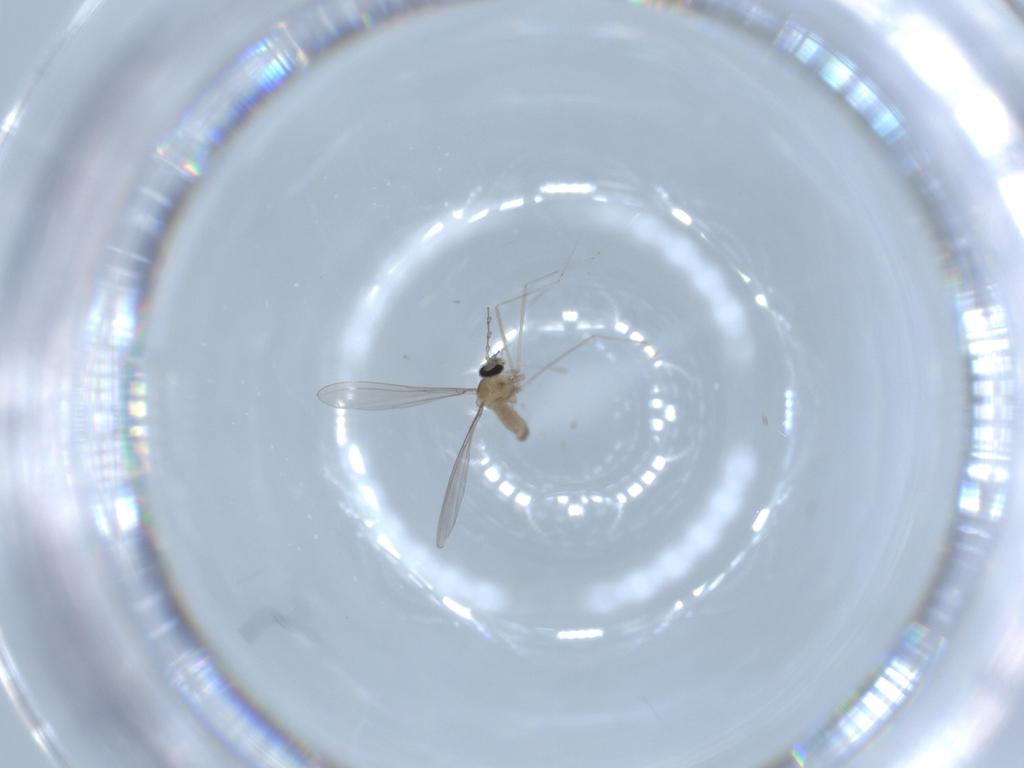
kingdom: Animalia
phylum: Arthropoda
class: Insecta
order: Diptera
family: Cecidomyiidae
